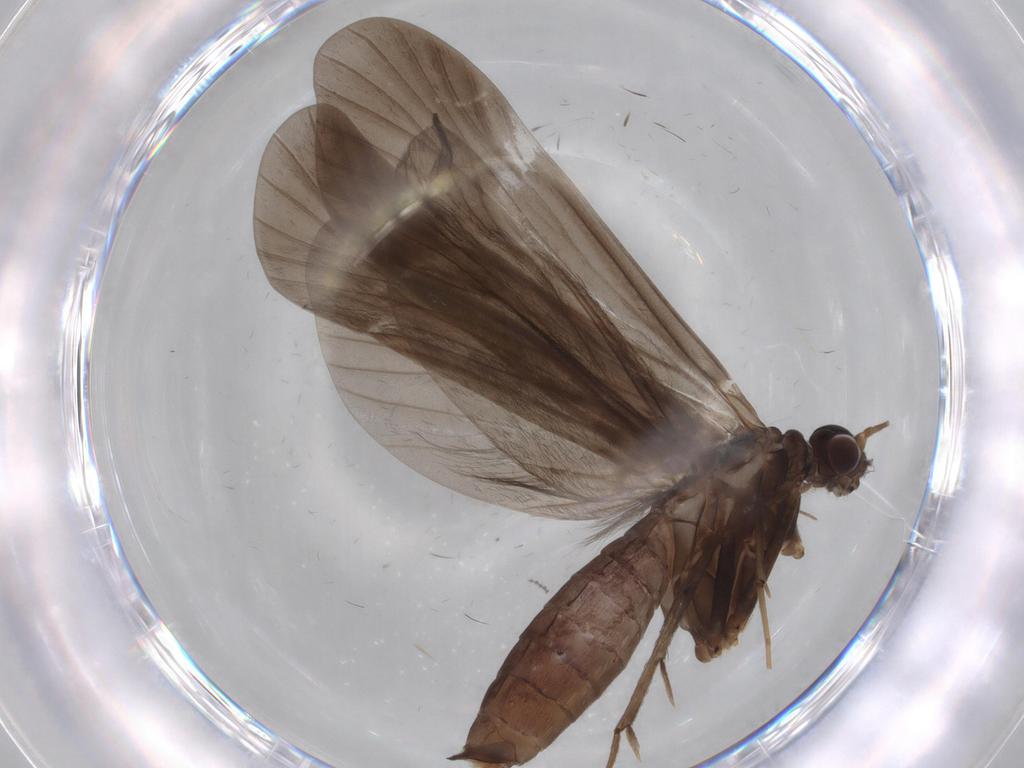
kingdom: Animalia
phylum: Arthropoda
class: Insecta
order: Trichoptera
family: Hydropsychidae
